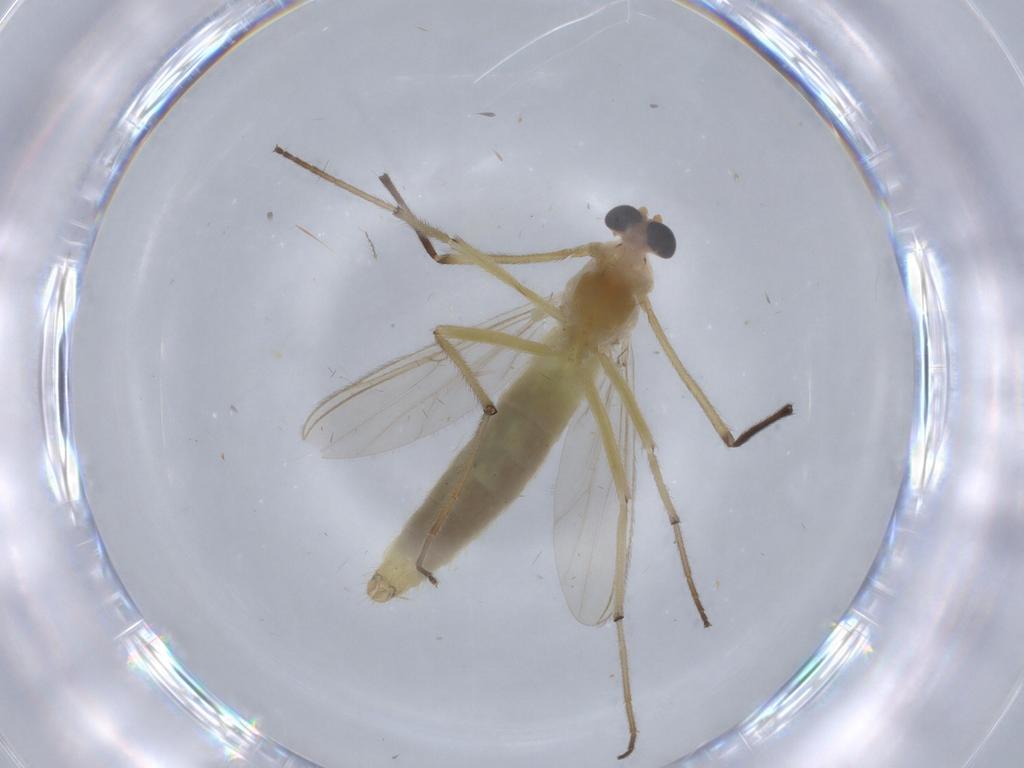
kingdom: Animalia
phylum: Arthropoda
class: Insecta
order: Diptera
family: Chironomidae
